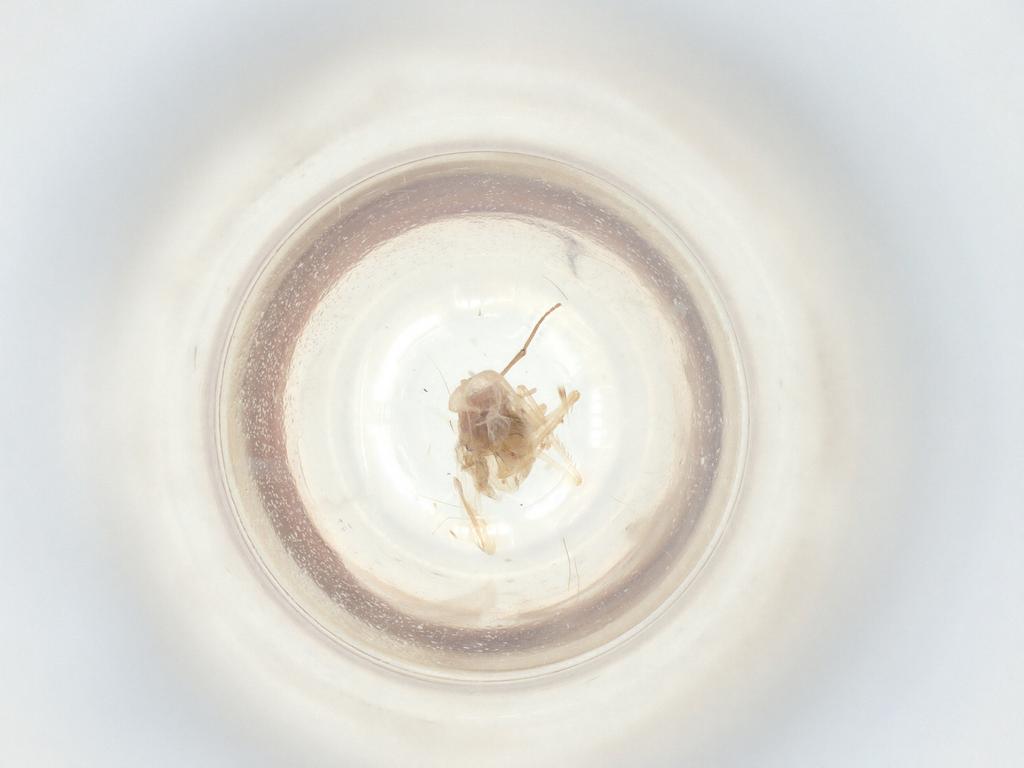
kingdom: Animalia
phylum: Arthropoda
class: Insecta
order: Hemiptera
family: Cicadellidae
